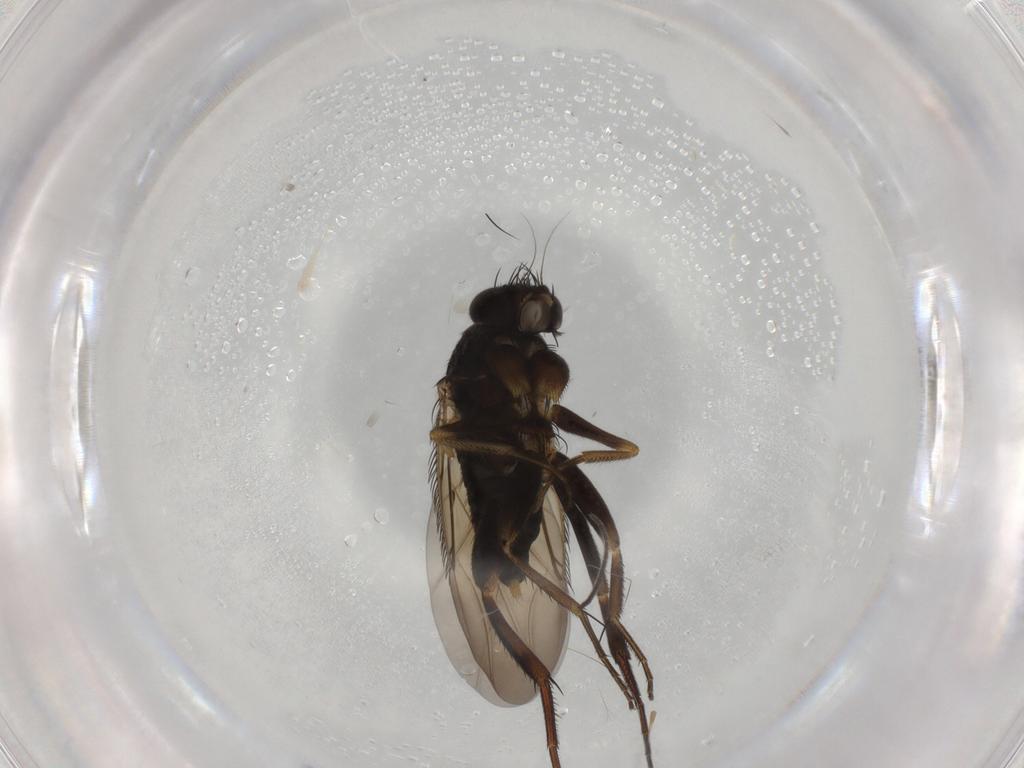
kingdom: Animalia
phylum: Arthropoda
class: Insecta
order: Diptera
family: Phoridae
